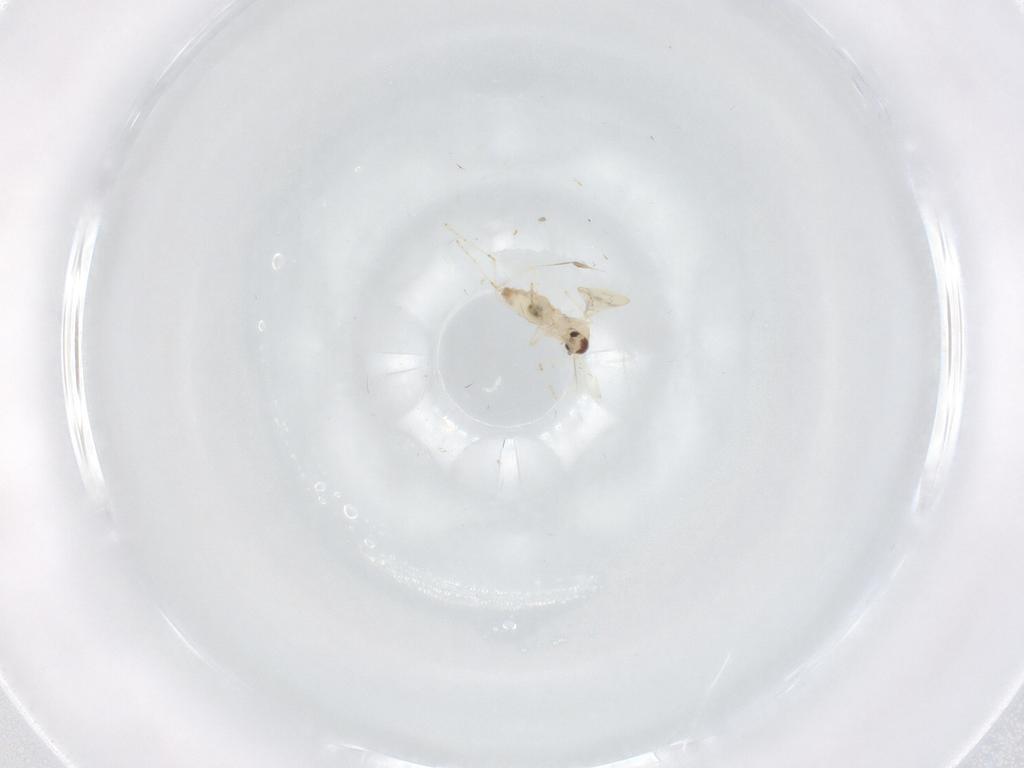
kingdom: Animalia
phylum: Arthropoda
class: Insecta
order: Diptera
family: Cecidomyiidae
